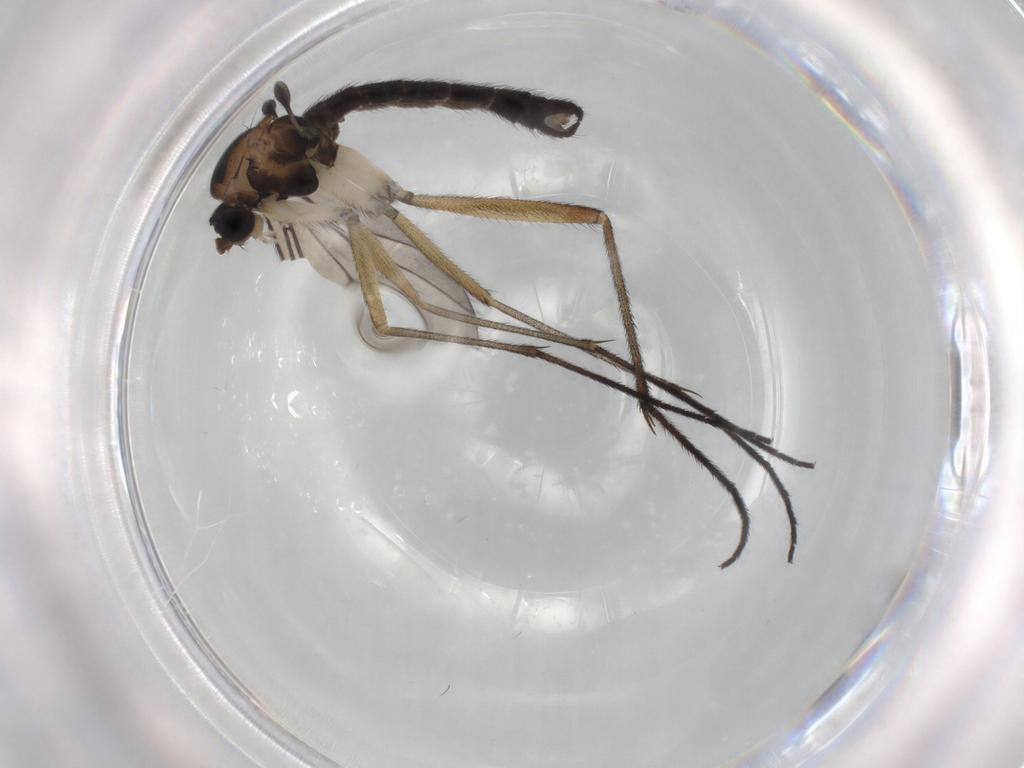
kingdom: Animalia
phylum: Arthropoda
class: Insecta
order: Diptera
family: Sciaridae
